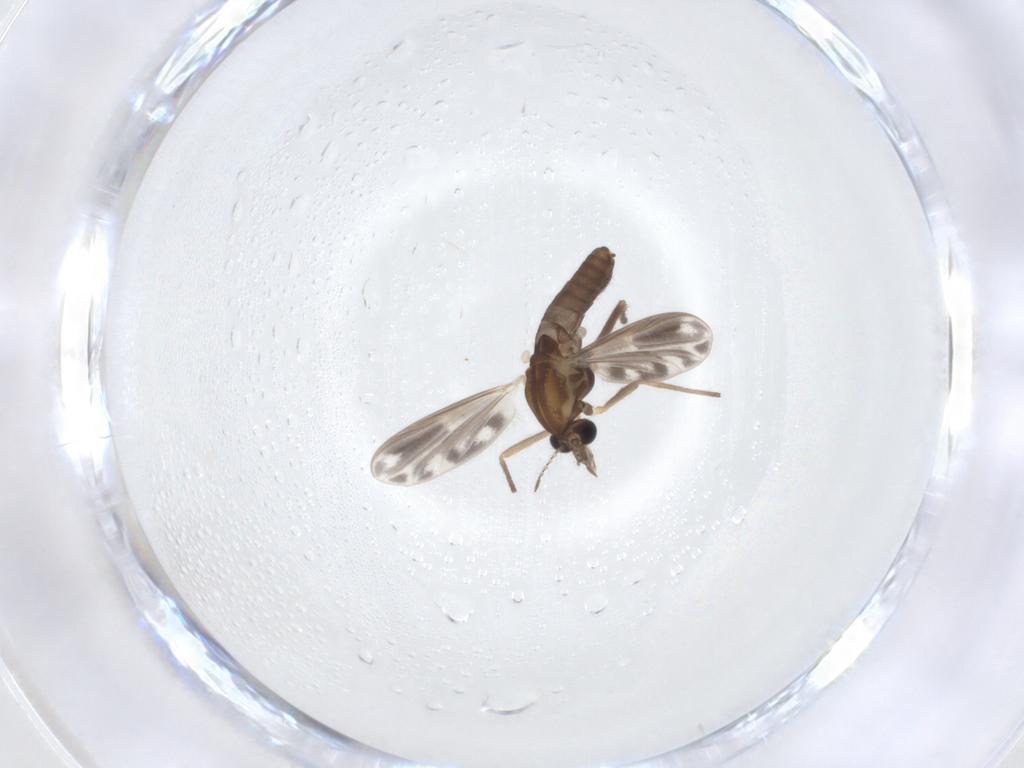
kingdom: Animalia
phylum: Arthropoda
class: Insecta
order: Diptera
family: Chironomidae
